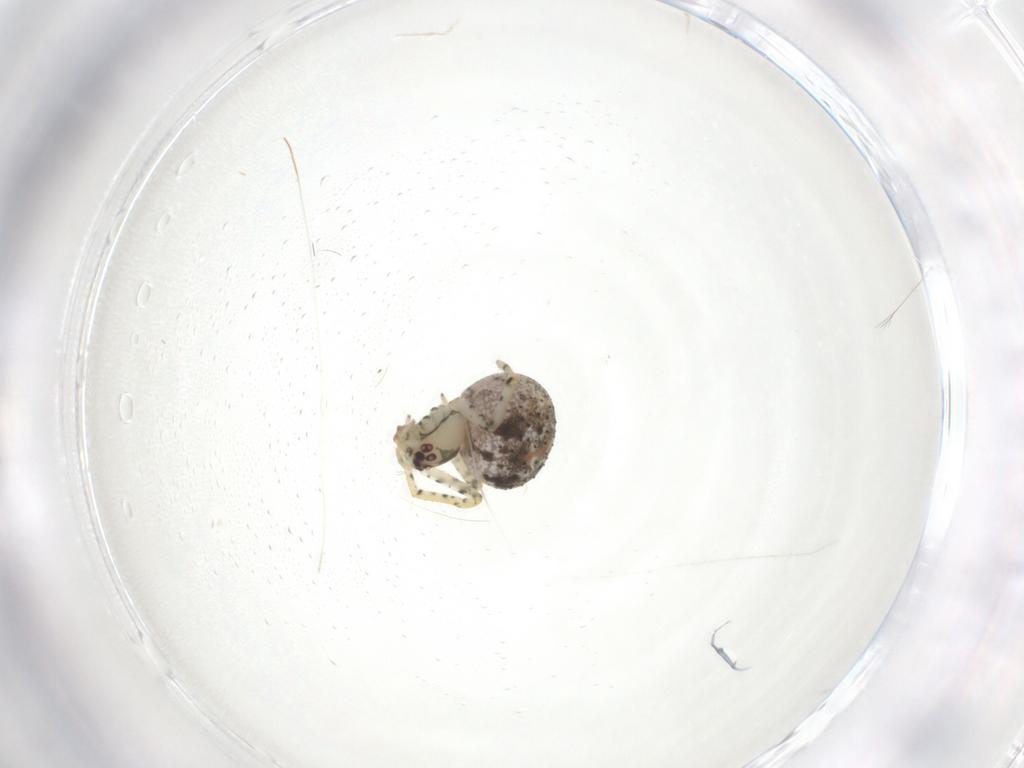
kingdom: Animalia
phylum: Arthropoda
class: Arachnida
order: Araneae
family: Theridiidae
